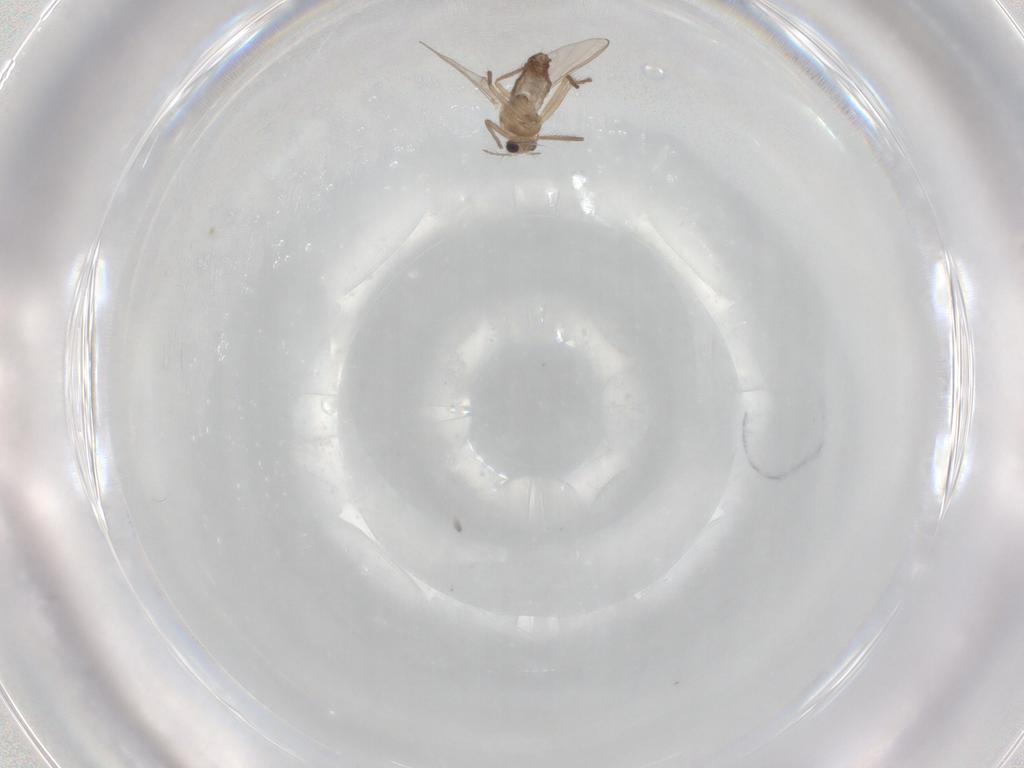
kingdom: Animalia
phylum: Arthropoda
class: Insecta
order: Diptera
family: Chironomidae
